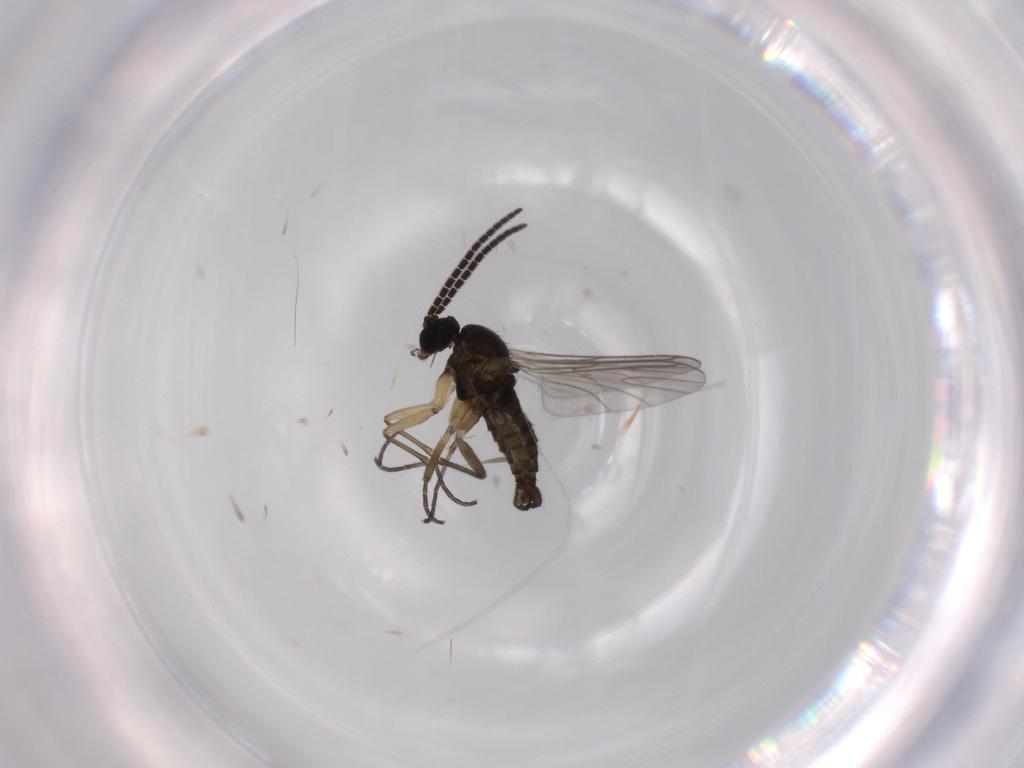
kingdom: Animalia
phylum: Arthropoda
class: Insecta
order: Diptera
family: Sciaridae
